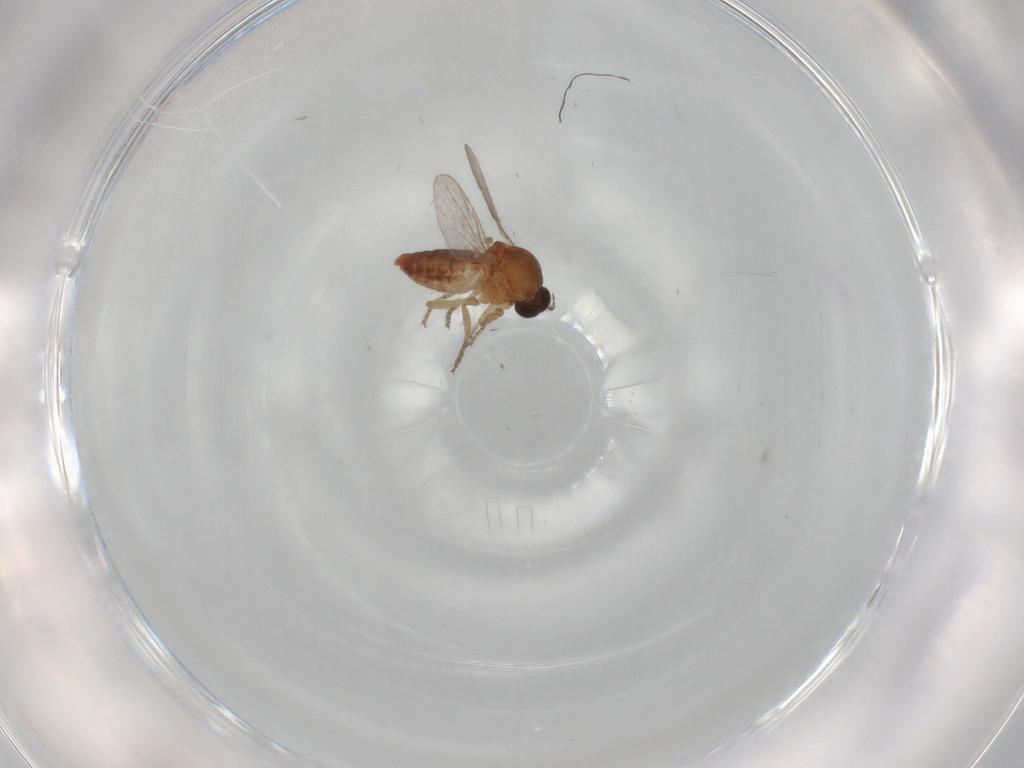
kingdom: Animalia
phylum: Arthropoda
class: Insecta
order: Diptera
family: Ceratopogonidae
